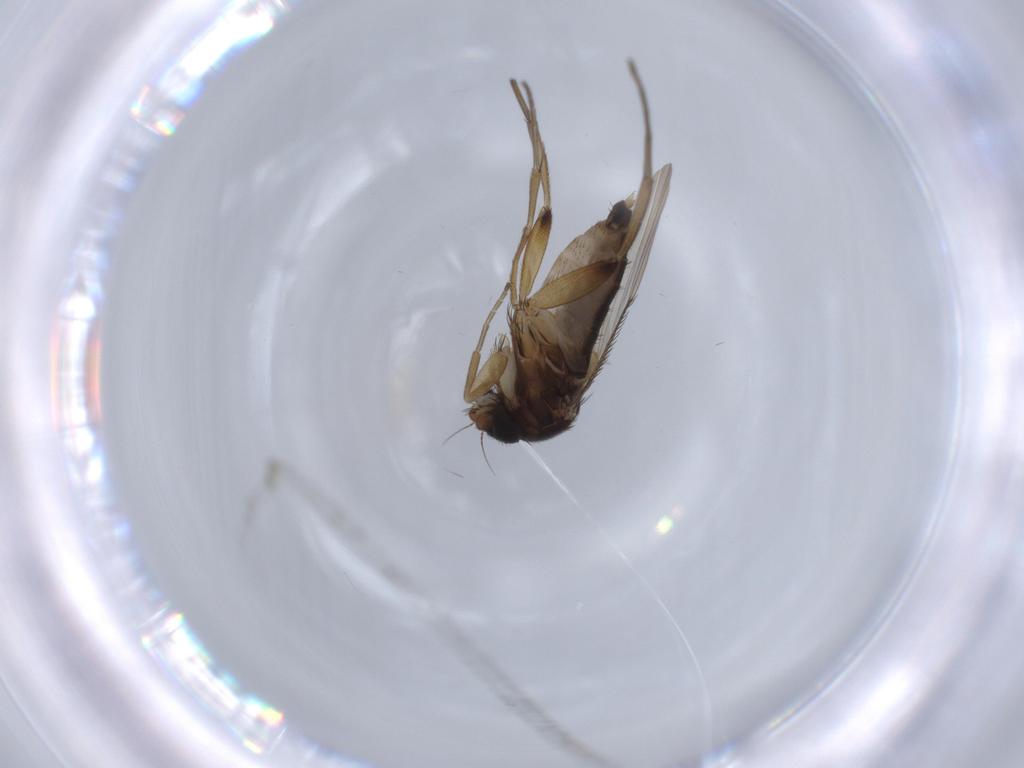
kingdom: Animalia
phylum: Arthropoda
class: Insecta
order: Diptera
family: Phoridae
